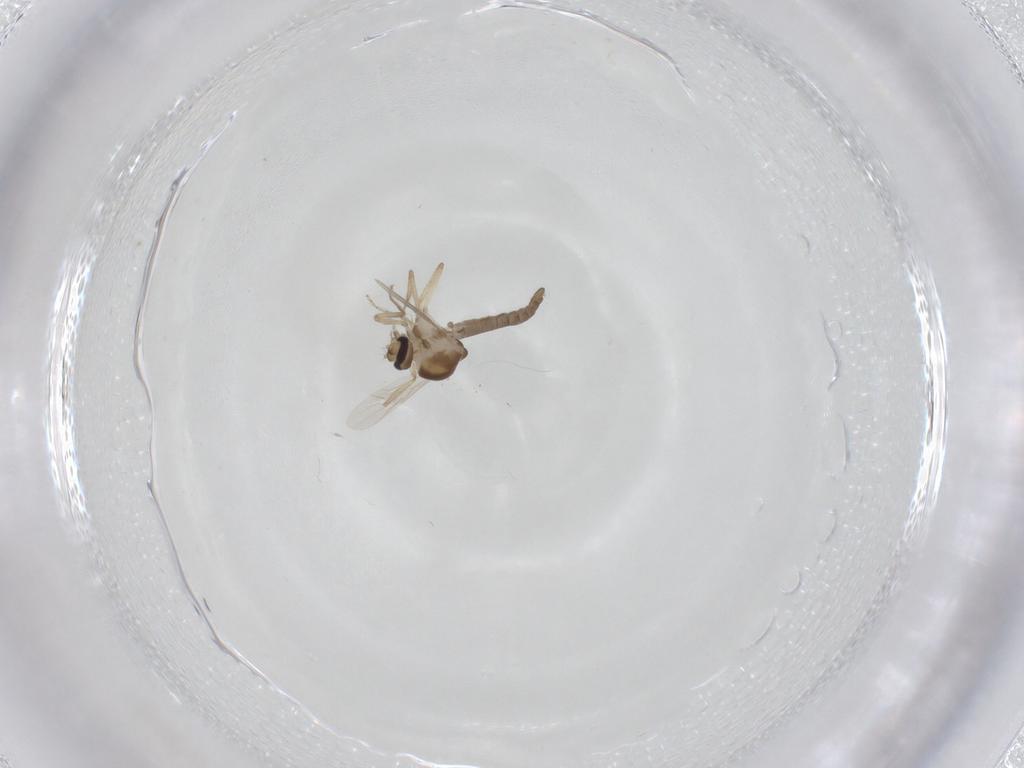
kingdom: Animalia
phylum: Arthropoda
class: Insecta
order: Diptera
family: Ceratopogonidae
